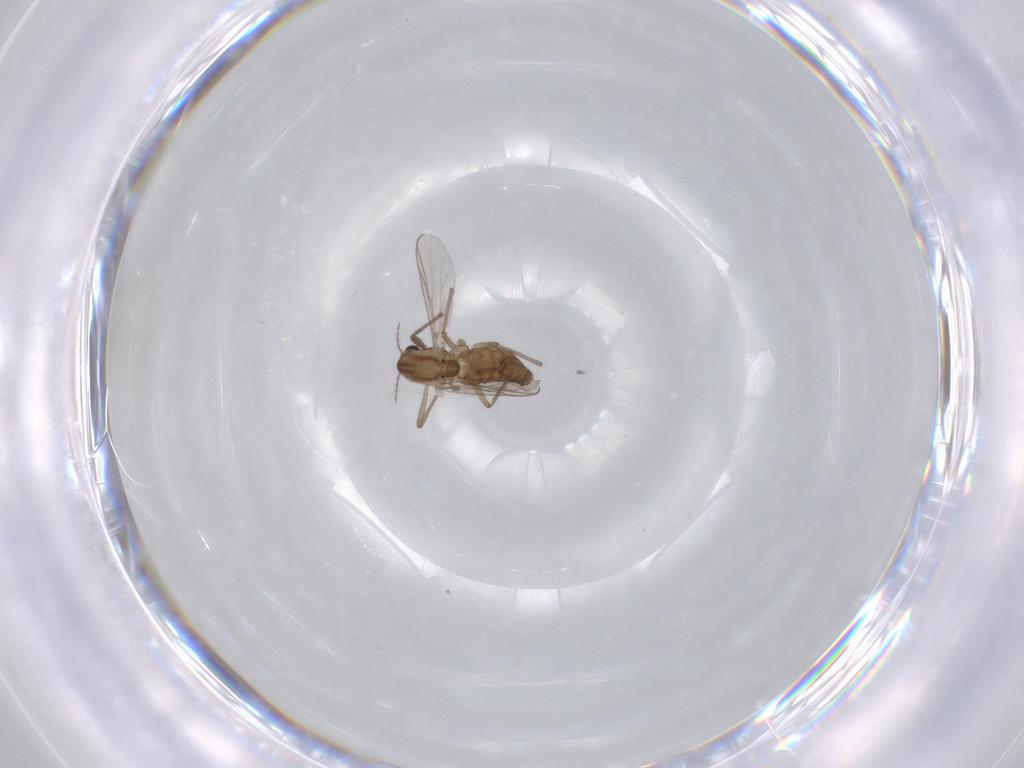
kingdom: Animalia
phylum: Arthropoda
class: Insecta
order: Diptera
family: Chironomidae
